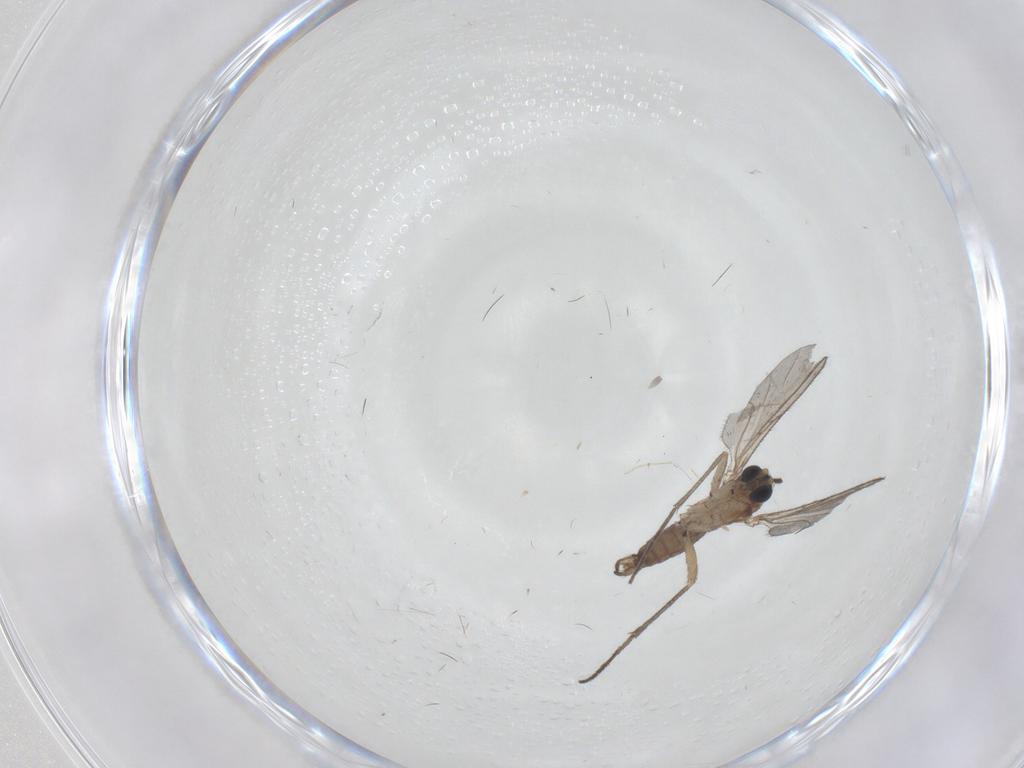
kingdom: Animalia
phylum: Arthropoda
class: Insecta
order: Diptera
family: Sciaridae
